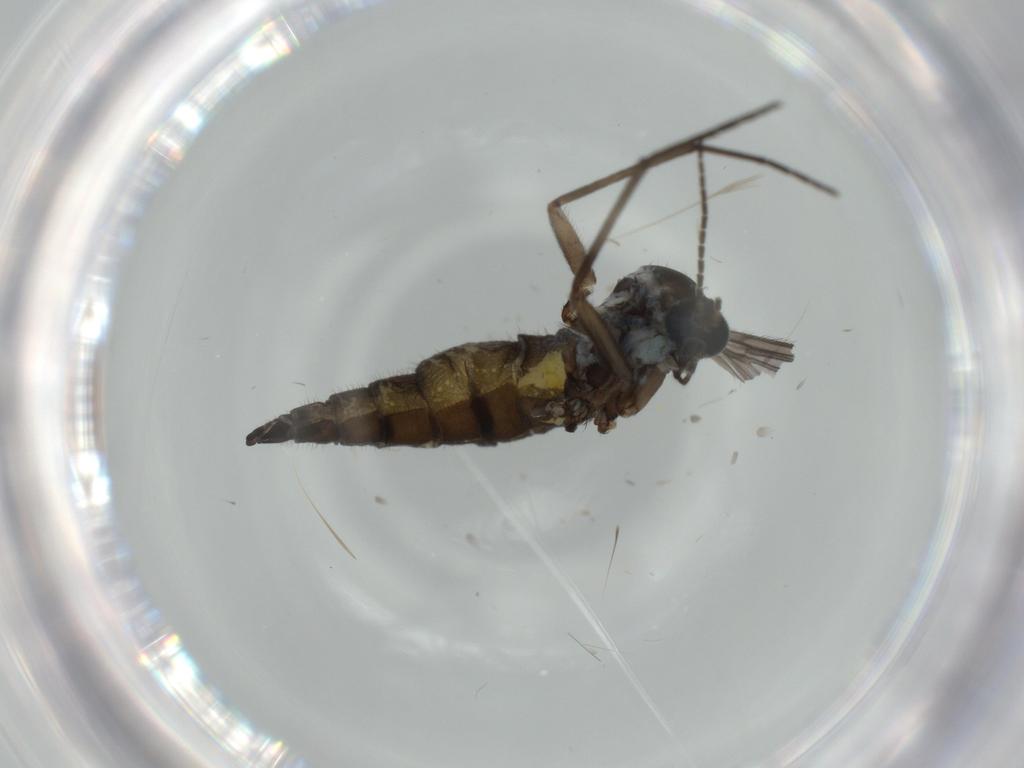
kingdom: Animalia
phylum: Arthropoda
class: Insecta
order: Diptera
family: Sciaridae
